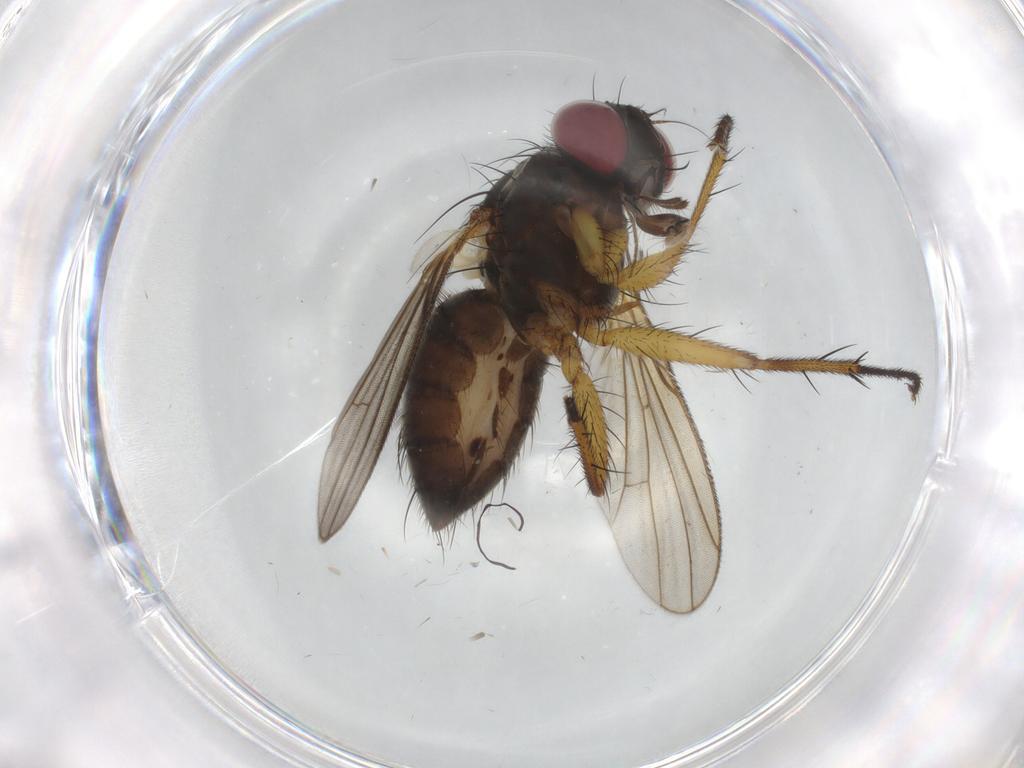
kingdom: Animalia
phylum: Arthropoda
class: Insecta
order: Diptera
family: Muscidae
